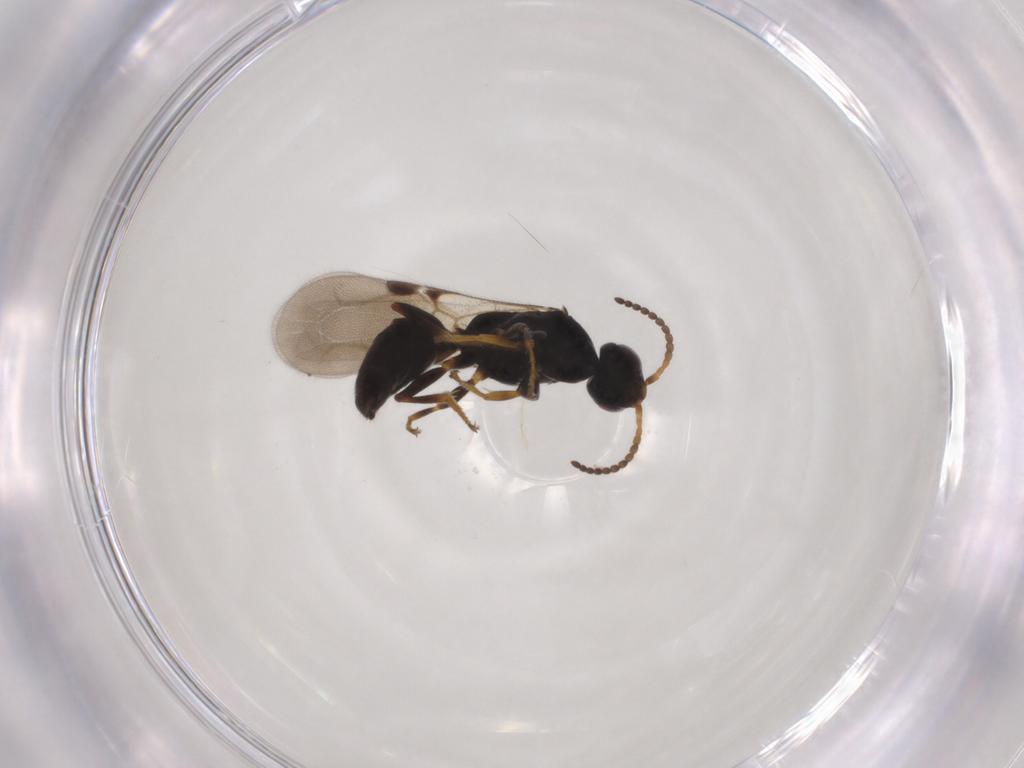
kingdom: Animalia
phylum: Arthropoda
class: Insecta
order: Hymenoptera
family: Bethylidae
